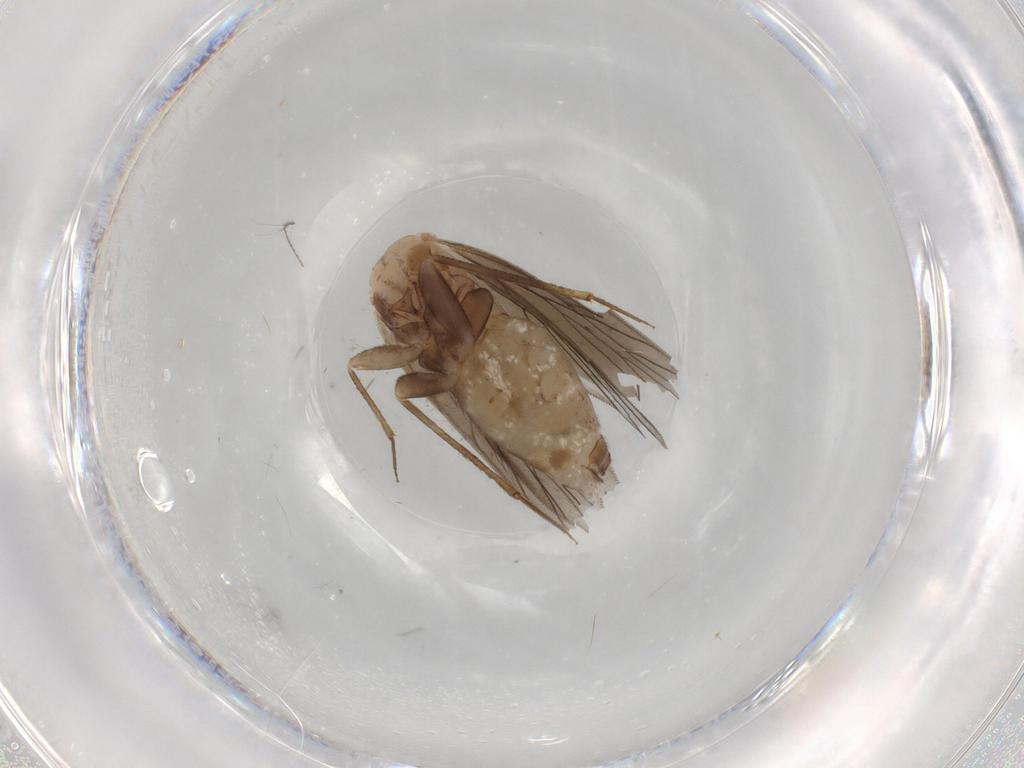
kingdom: Animalia
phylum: Arthropoda
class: Insecta
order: Psocodea
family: Lepidopsocidae
